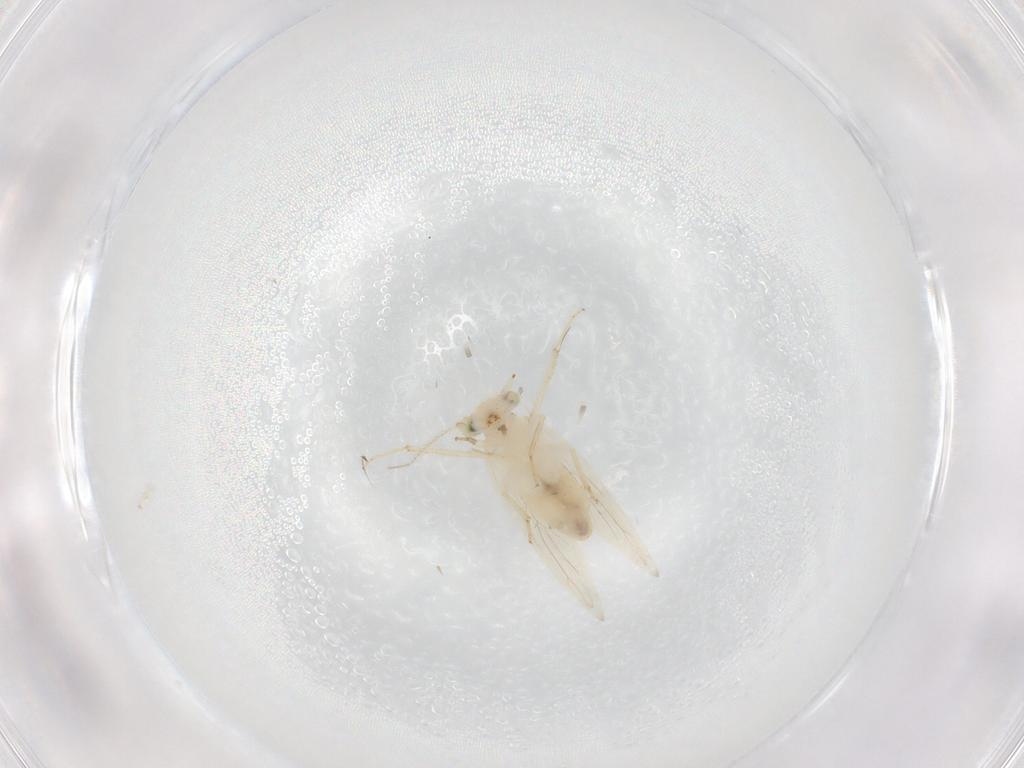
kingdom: Animalia
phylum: Arthropoda
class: Insecta
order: Psocodea
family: Lepidopsocidae
